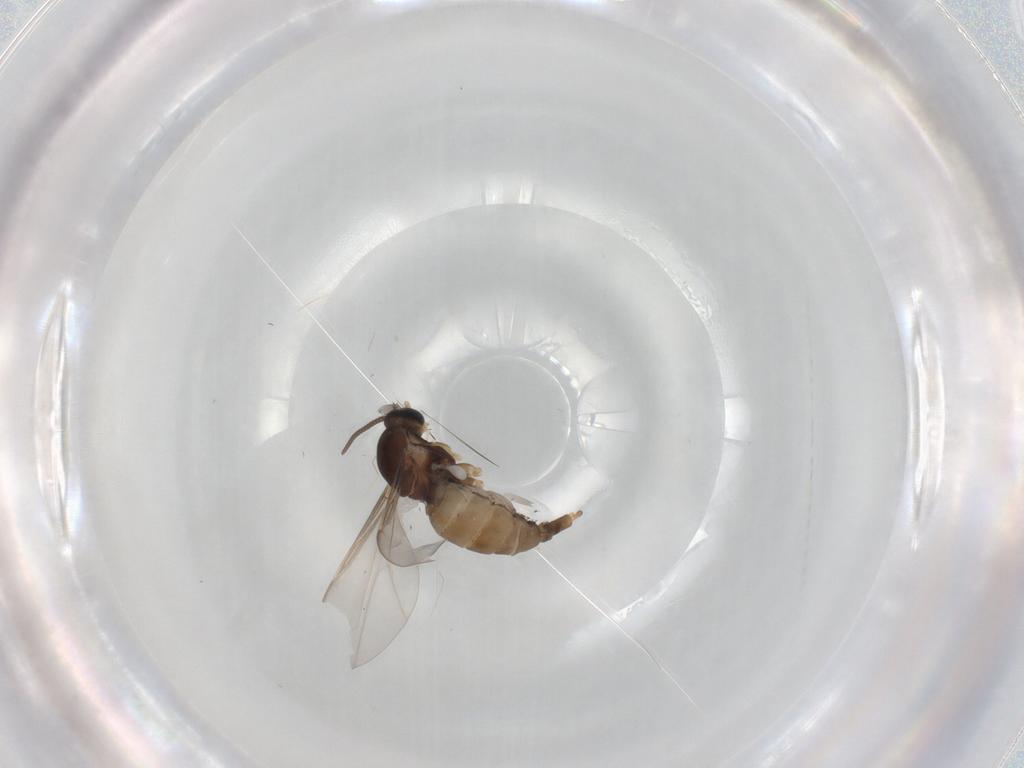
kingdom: Animalia
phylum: Arthropoda
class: Insecta
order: Diptera
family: Cecidomyiidae
